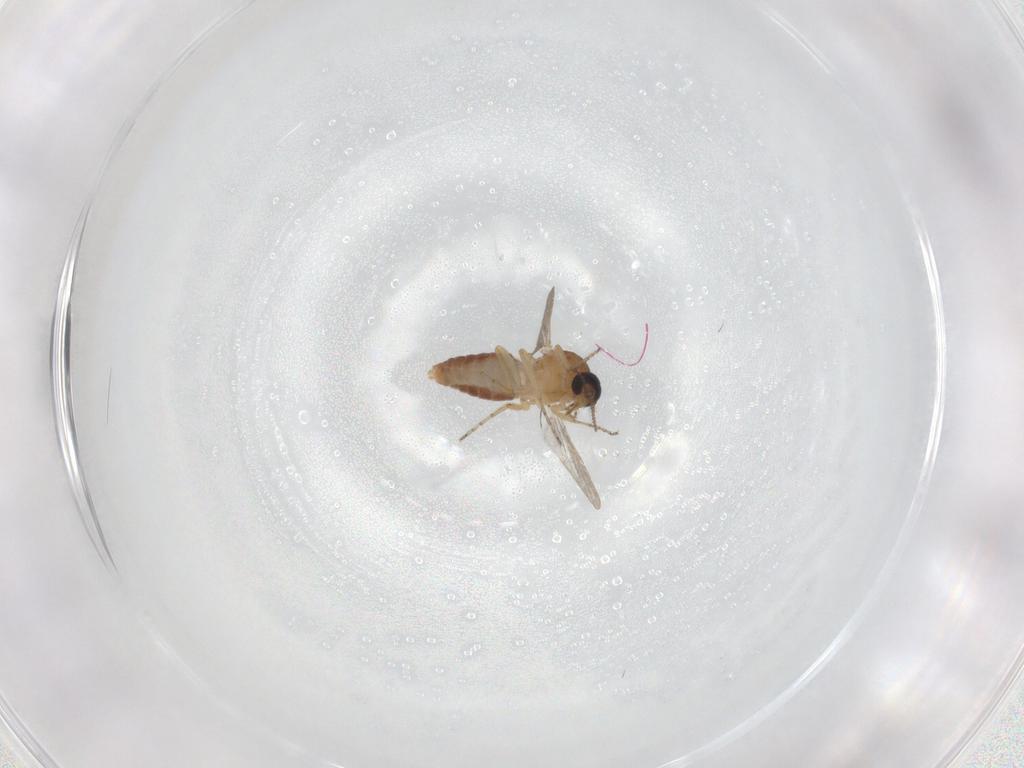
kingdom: Animalia
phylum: Arthropoda
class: Insecta
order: Diptera
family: Ceratopogonidae
